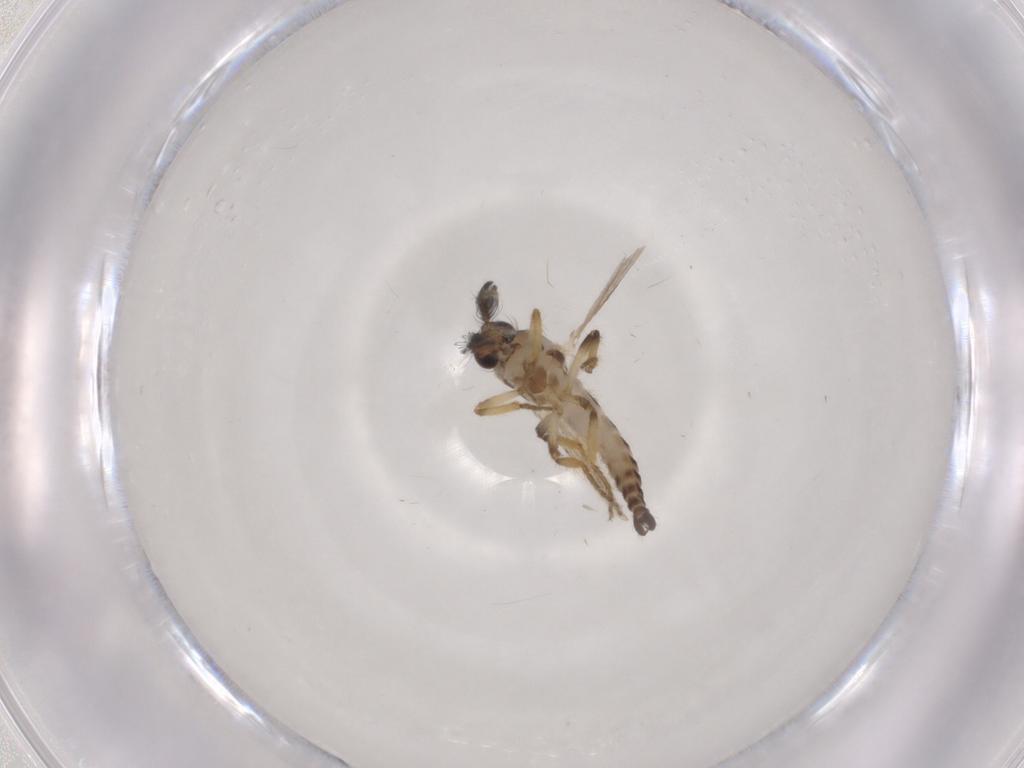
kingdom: Animalia
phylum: Arthropoda
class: Insecta
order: Diptera
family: Ceratopogonidae
